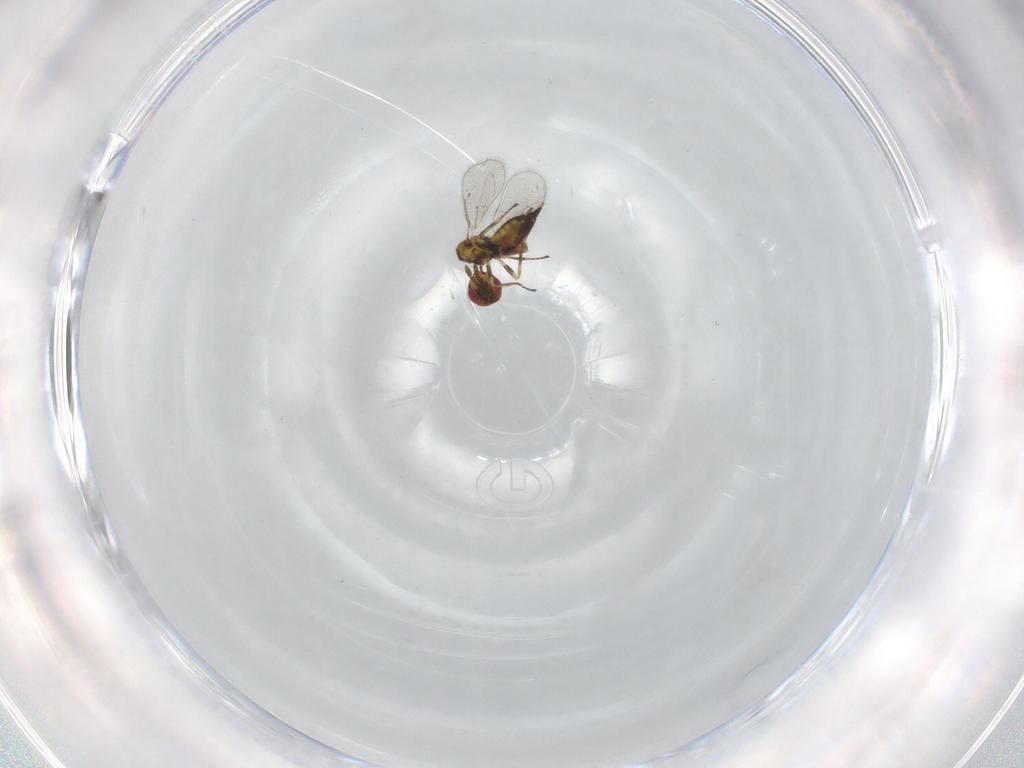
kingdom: Animalia
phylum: Arthropoda
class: Insecta
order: Hymenoptera
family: Eulophidae
